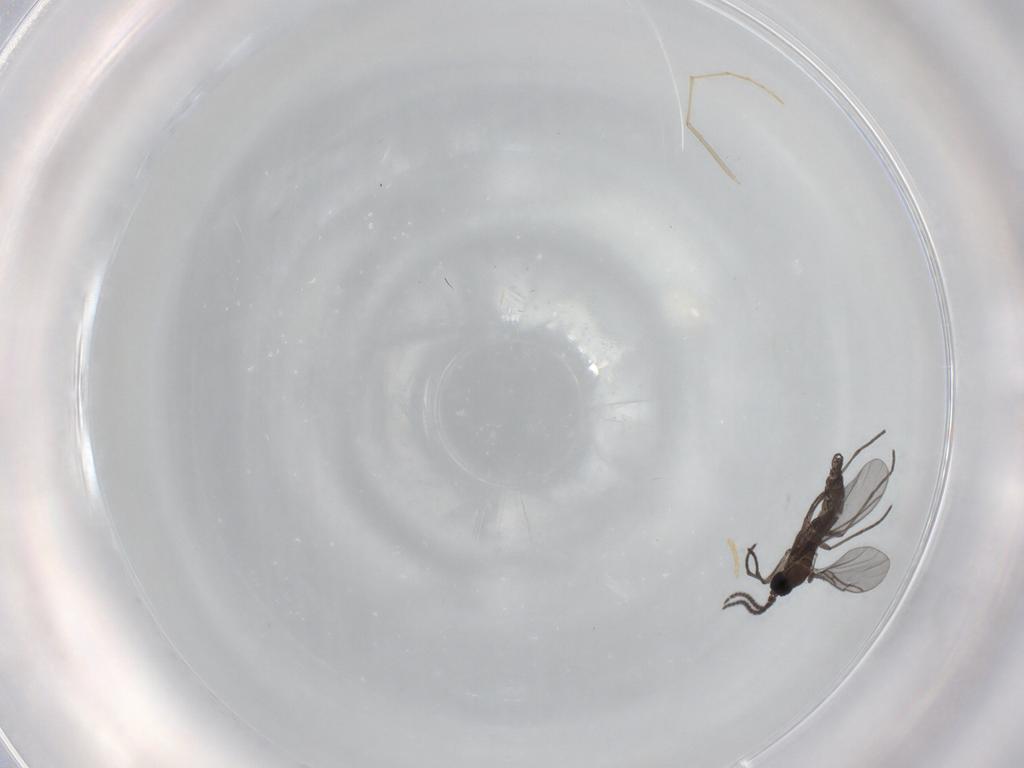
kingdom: Animalia
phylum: Arthropoda
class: Insecta
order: Diptera
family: Psychodidae
